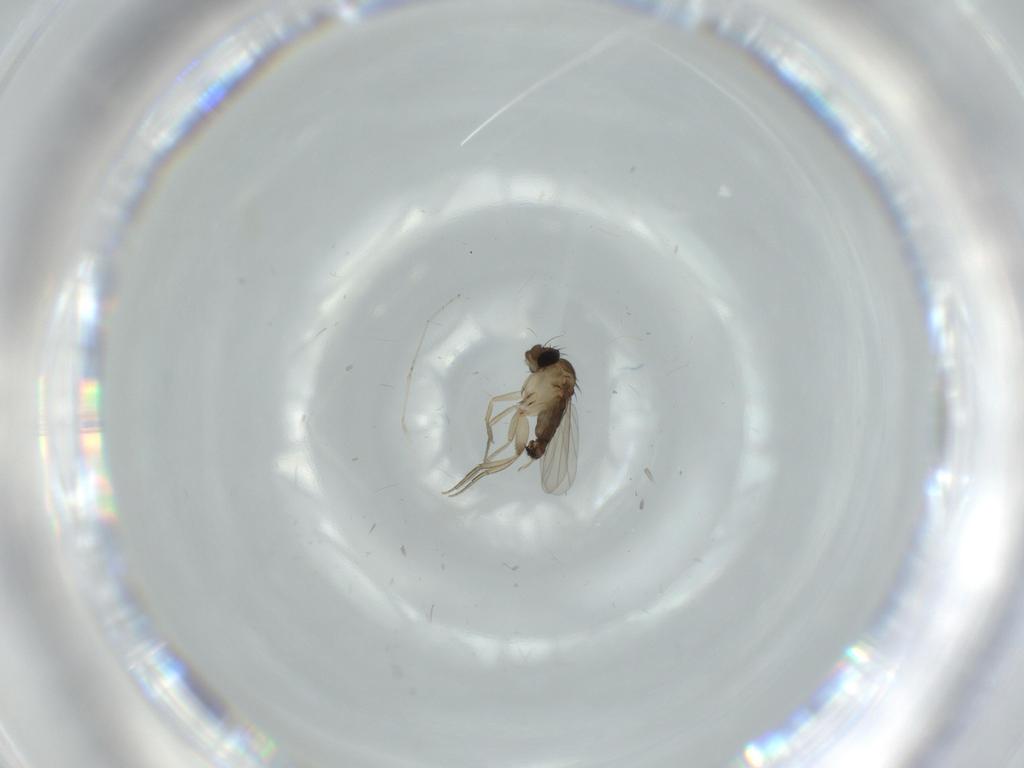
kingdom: Animalia
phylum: Arthropoda
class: Insecta
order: Diptera
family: Phoridae
